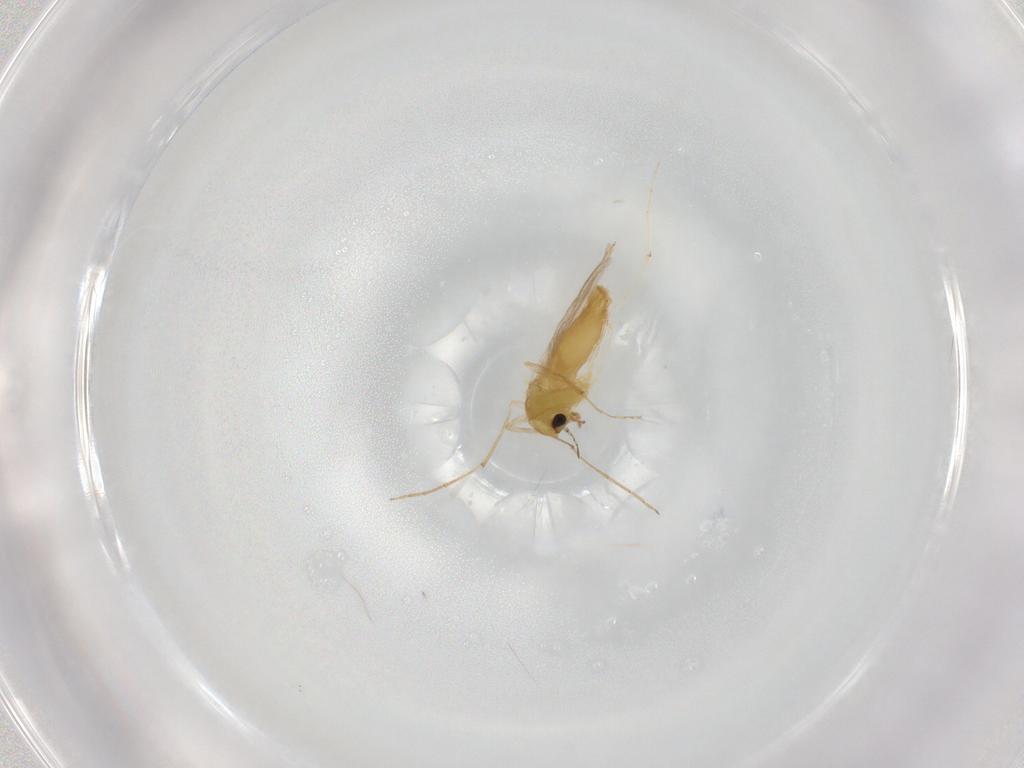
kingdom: Animalia
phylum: Arthropoda
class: Insecta
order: Diptera
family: Chironomidae
